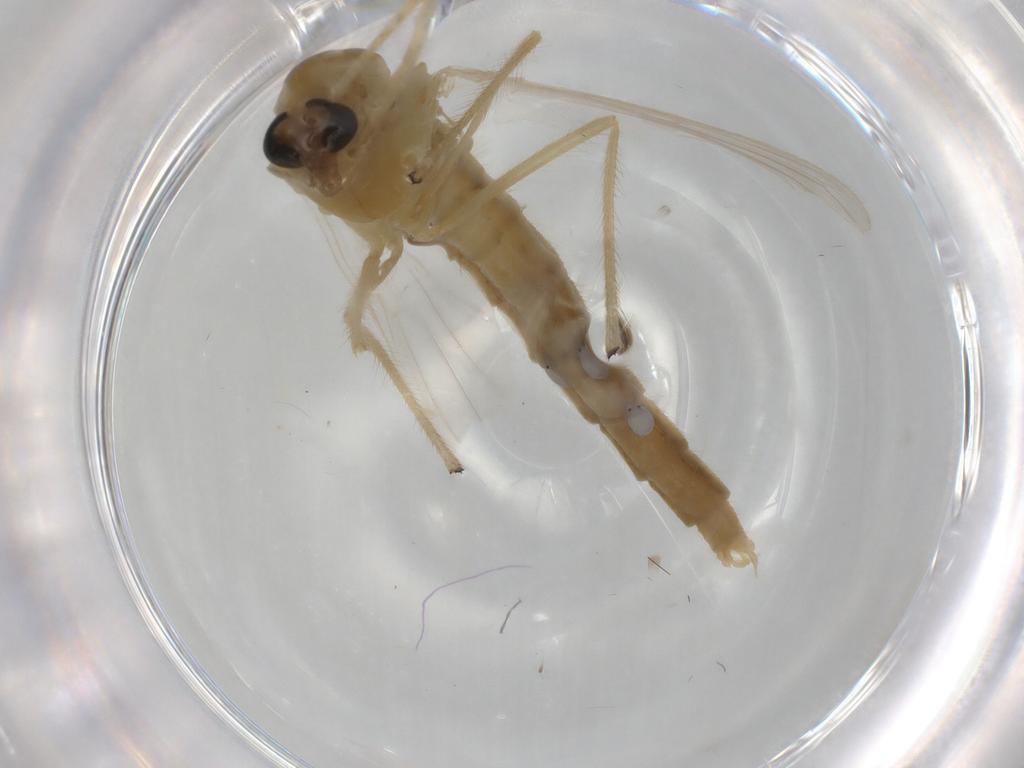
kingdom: Animalia
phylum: Arthropoda
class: Insecta
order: Diptera
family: Chironomidae
